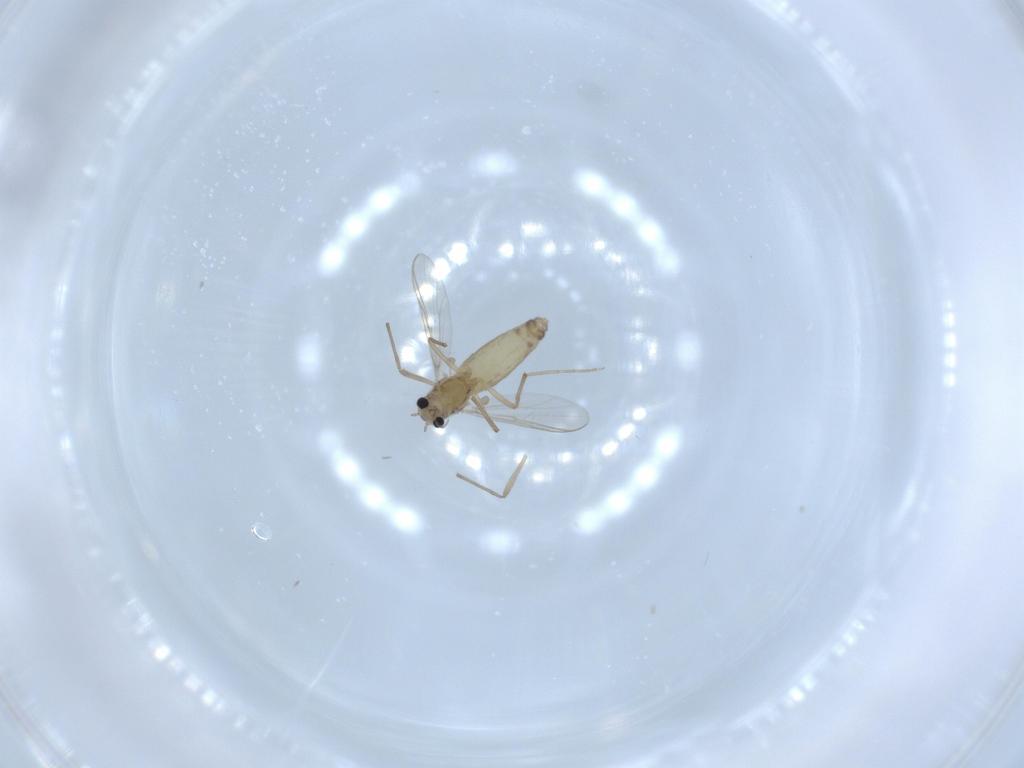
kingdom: Animalia
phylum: Arthropoda
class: Insecta
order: Diptera
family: Chironomidae
